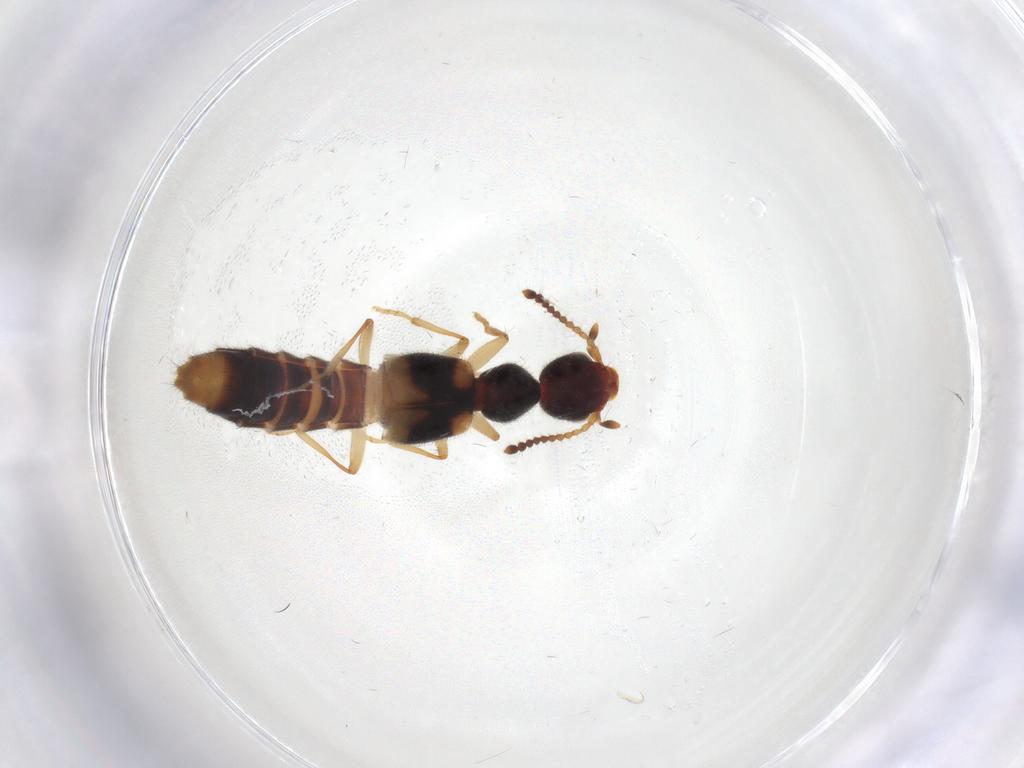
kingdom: Animalia
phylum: Arthropoda
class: Insecta
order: Coleoptera
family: Staphylinidae
